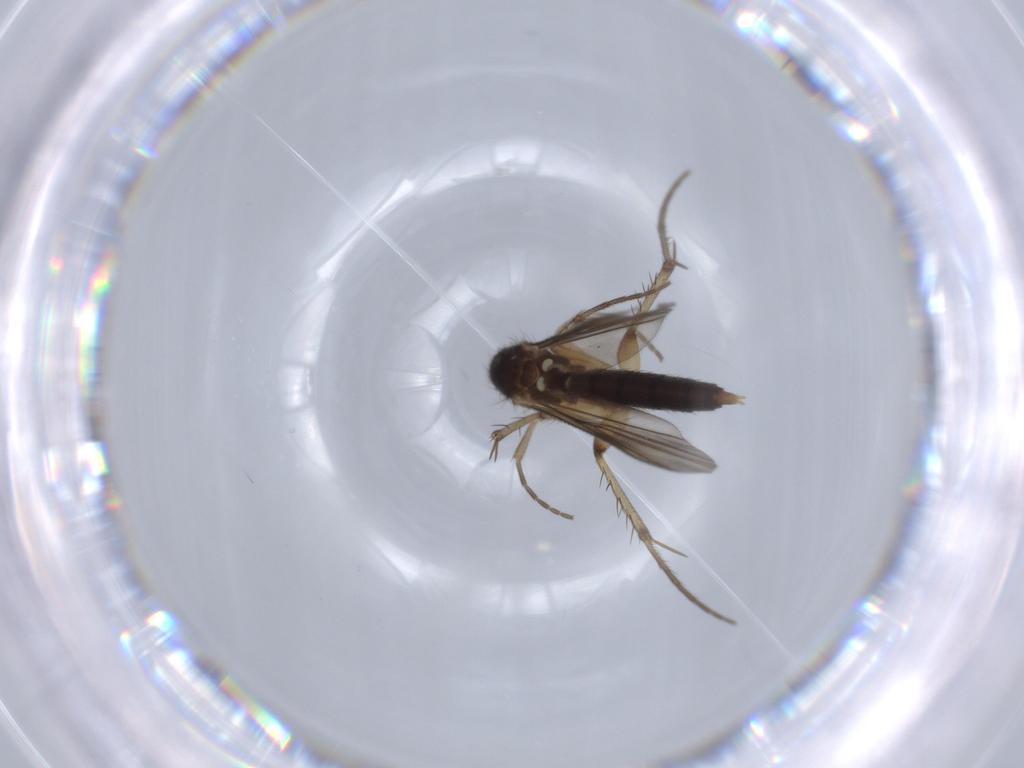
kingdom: Animalia
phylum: Arthropoda
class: Insecta
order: Diptera
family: Mycetophilidae
